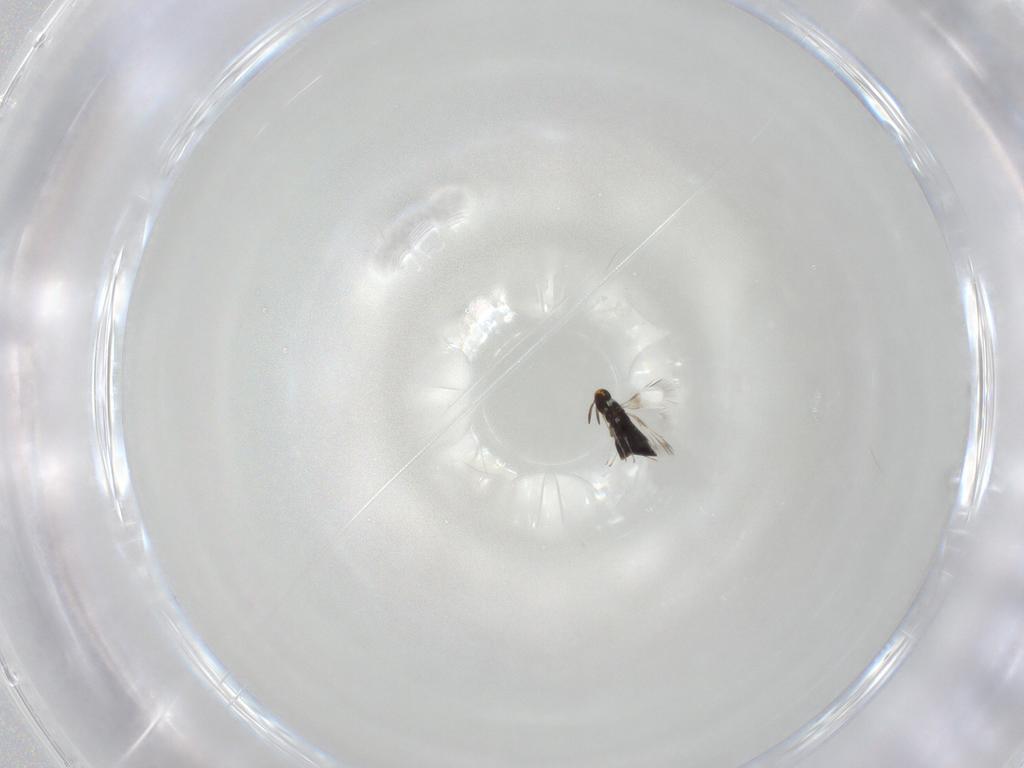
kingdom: Animalia
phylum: Arthropoda
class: Insecta
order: Hymenoptera
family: Signiphoridae
